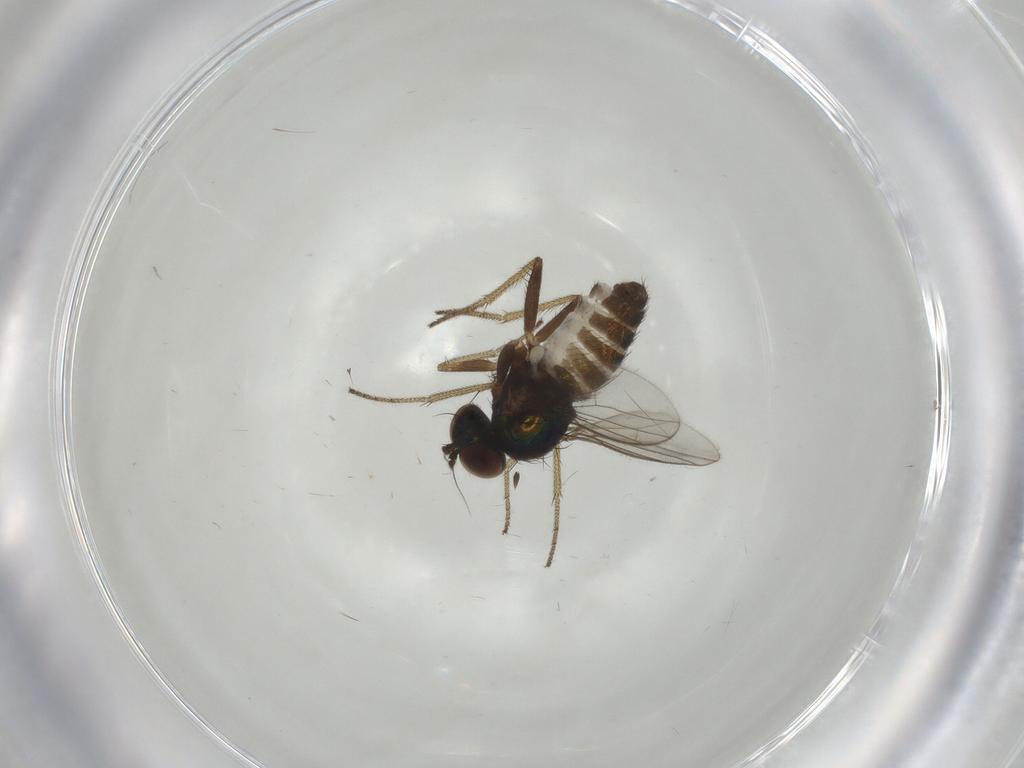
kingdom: Animalia
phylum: Arthropoda
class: Insecta
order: Diptera
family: Dolichopodidae
